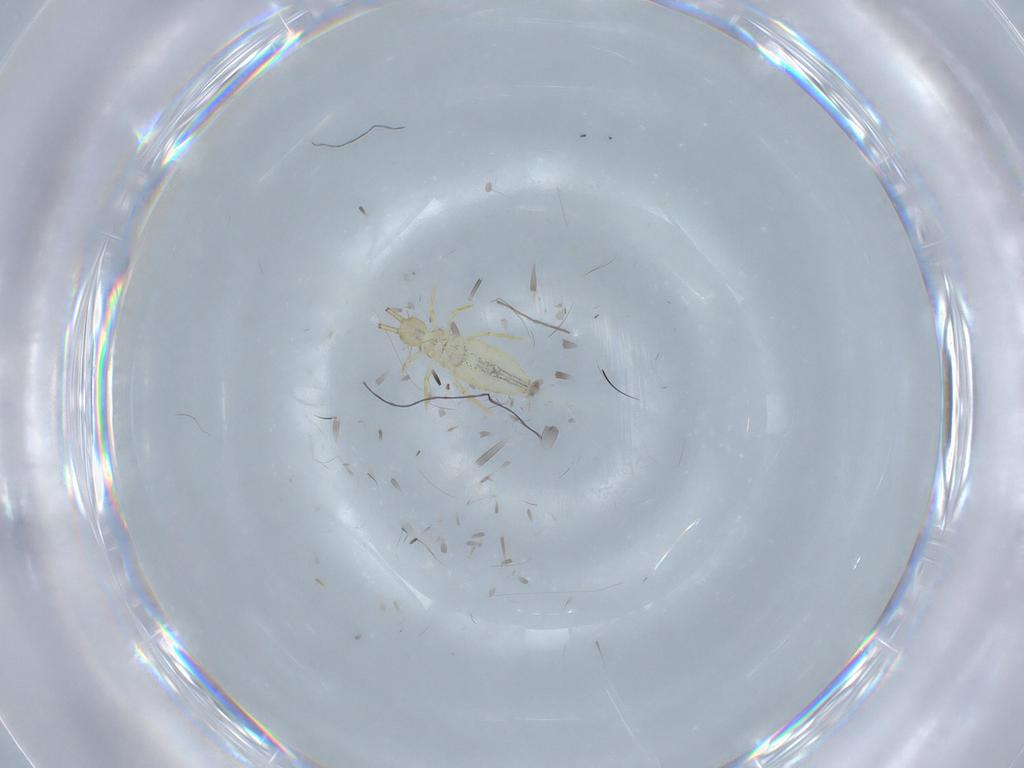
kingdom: Animalia
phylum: Arthropoda
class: Collembola
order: Entomobryomorpha
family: Paronellidae
